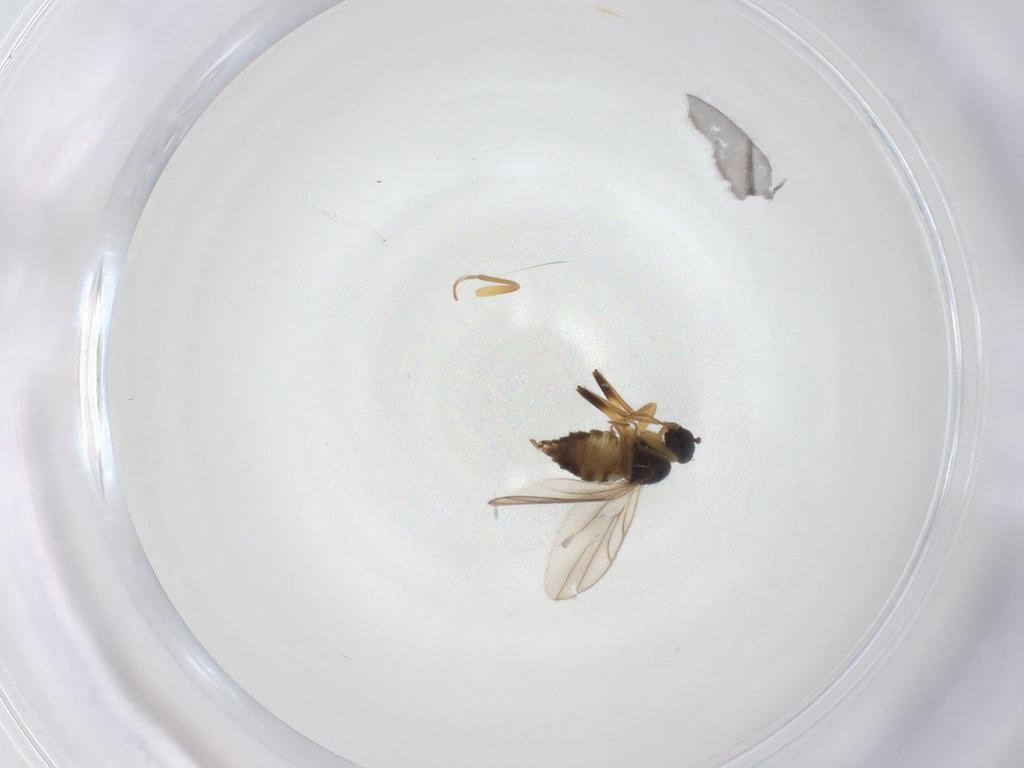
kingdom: Animalia
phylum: Arthropoda
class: Insecta
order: Diptera
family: Hybotidae
